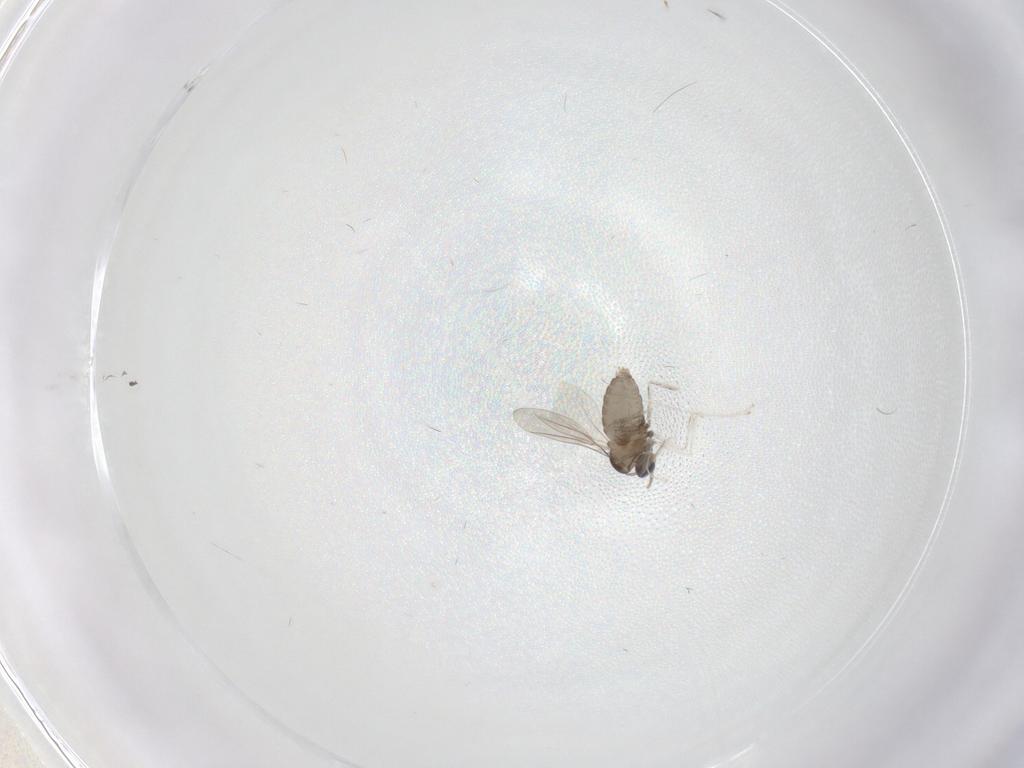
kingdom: Animalia
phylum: Arthropoda
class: Insecta
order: Diptera
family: Cecidomyiidae
